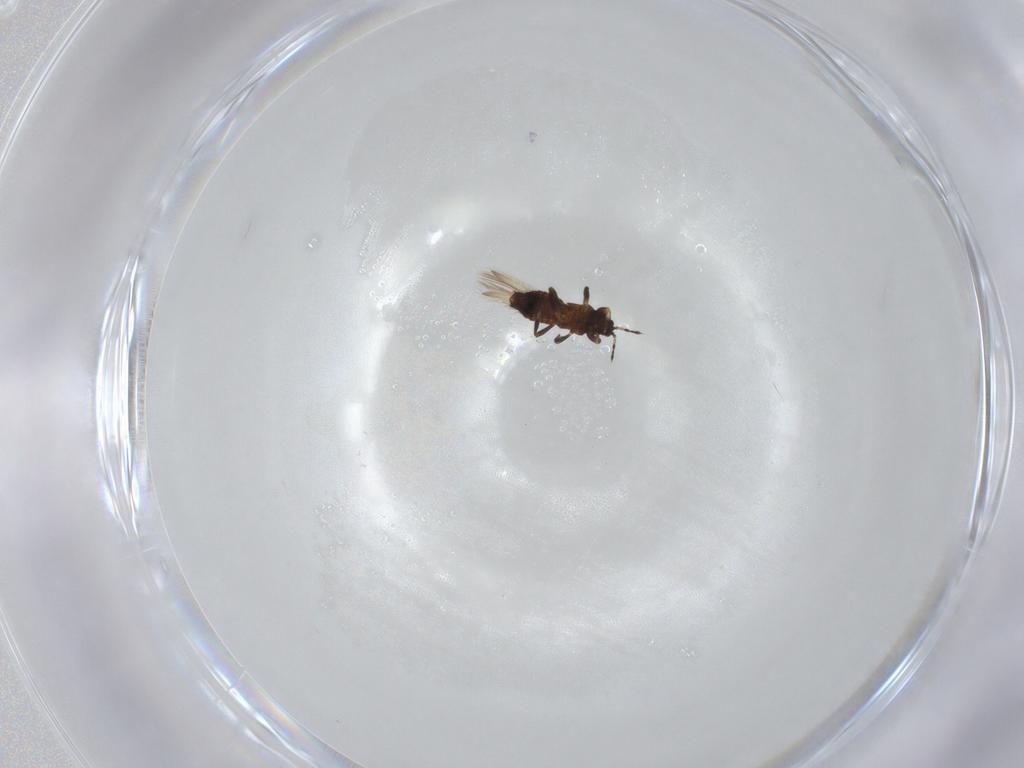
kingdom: Animalia
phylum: Arthropoda
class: Insecta
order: Thysanoptera
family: Thripidae
